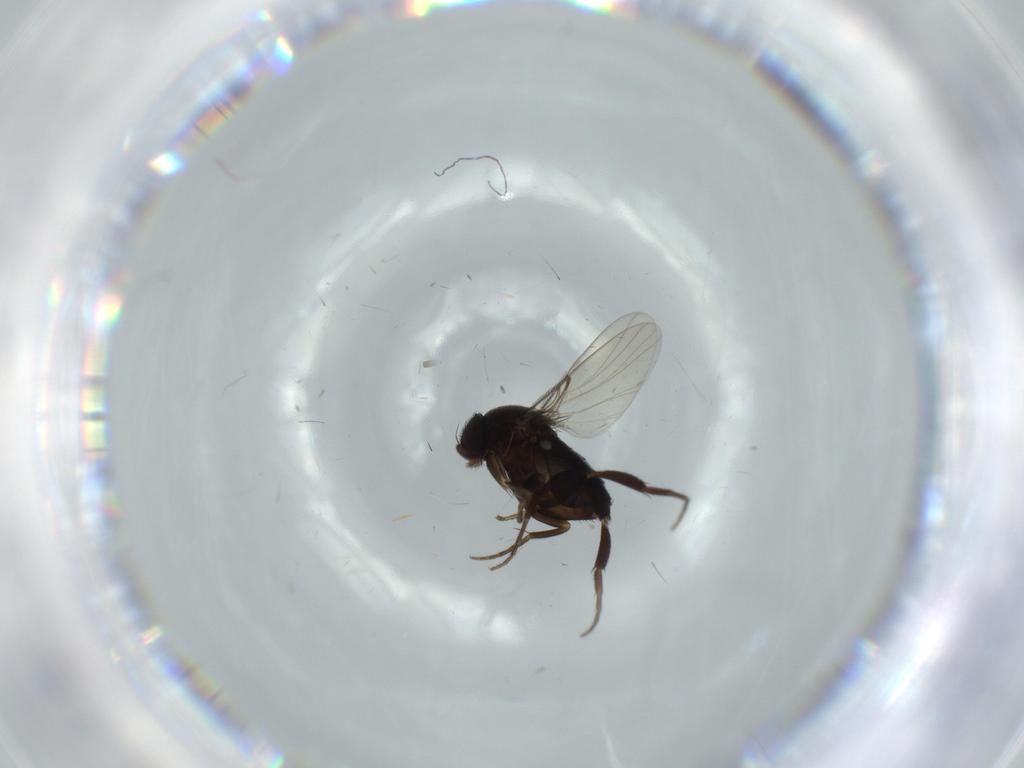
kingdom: Animalia
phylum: Arthropoda
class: Insecta
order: Diptera
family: Phoridae
